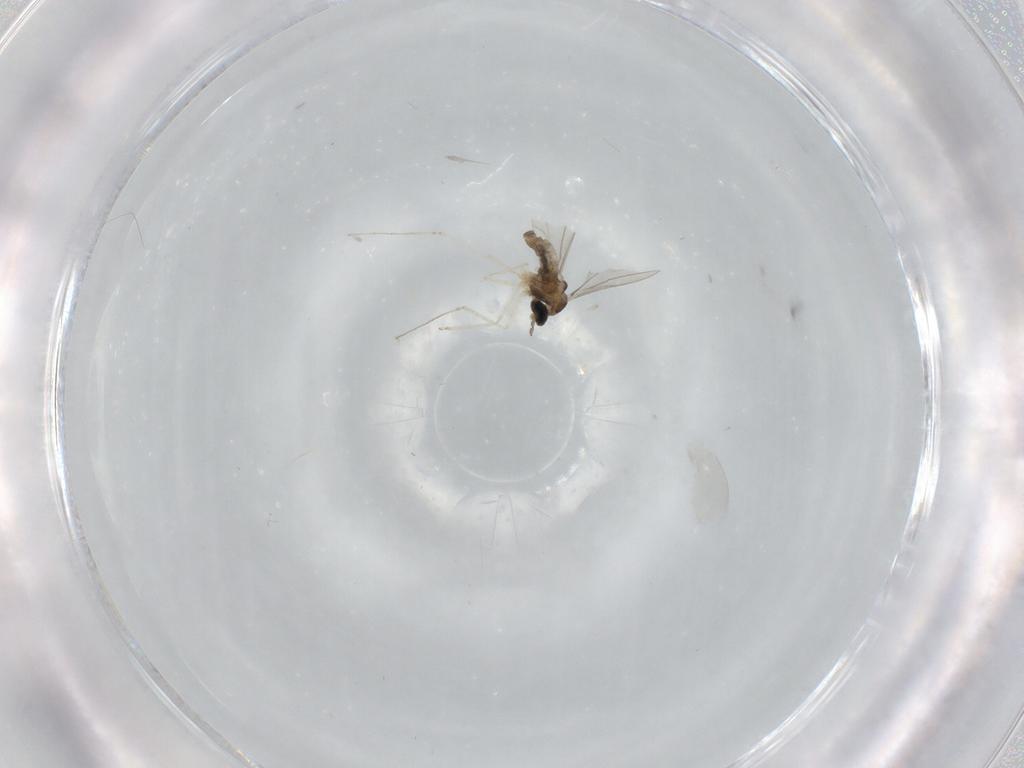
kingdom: Animalia
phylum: Arthropoda
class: Insecta
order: Diptera
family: Cecidomyiidae
